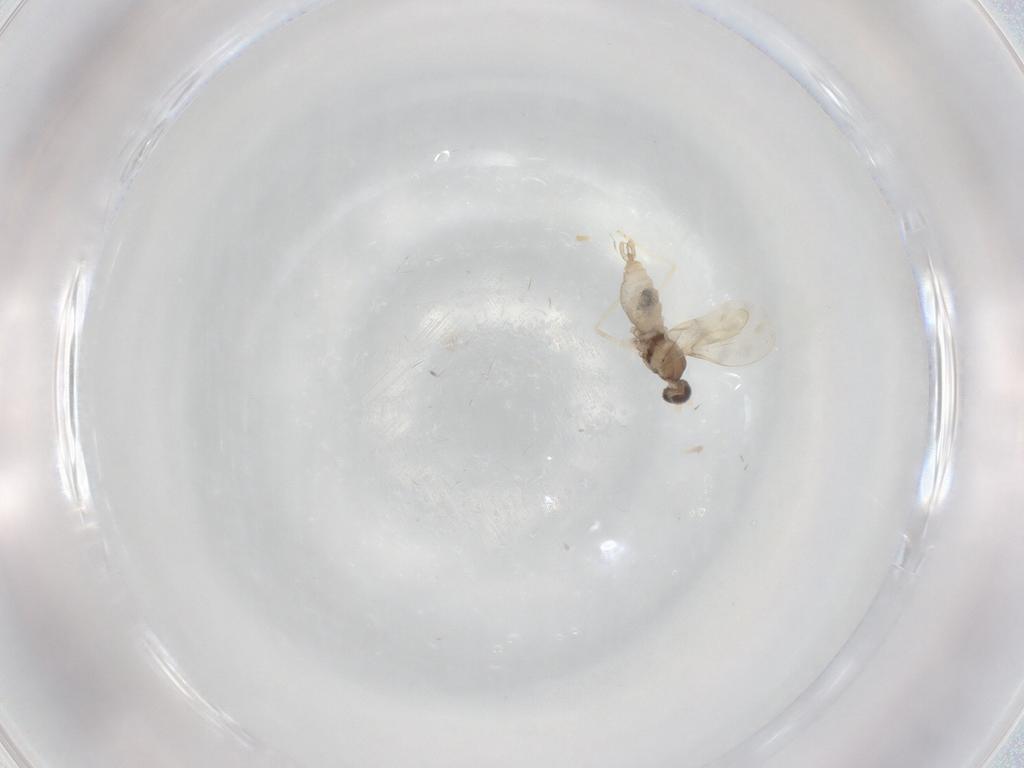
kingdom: Animalia
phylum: Arthropoda
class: Insecta
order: Diptera
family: Cecidomyiidae
